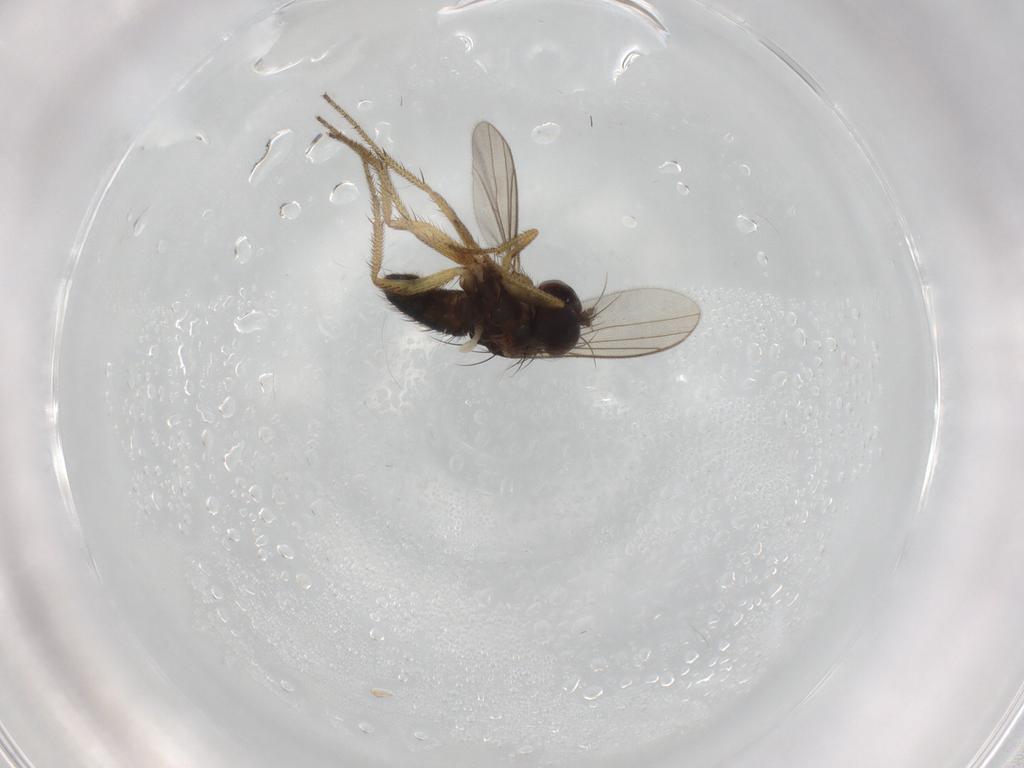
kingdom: Animalia
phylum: Arthropoda
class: Insecta
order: Diptera
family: Sciaridae
